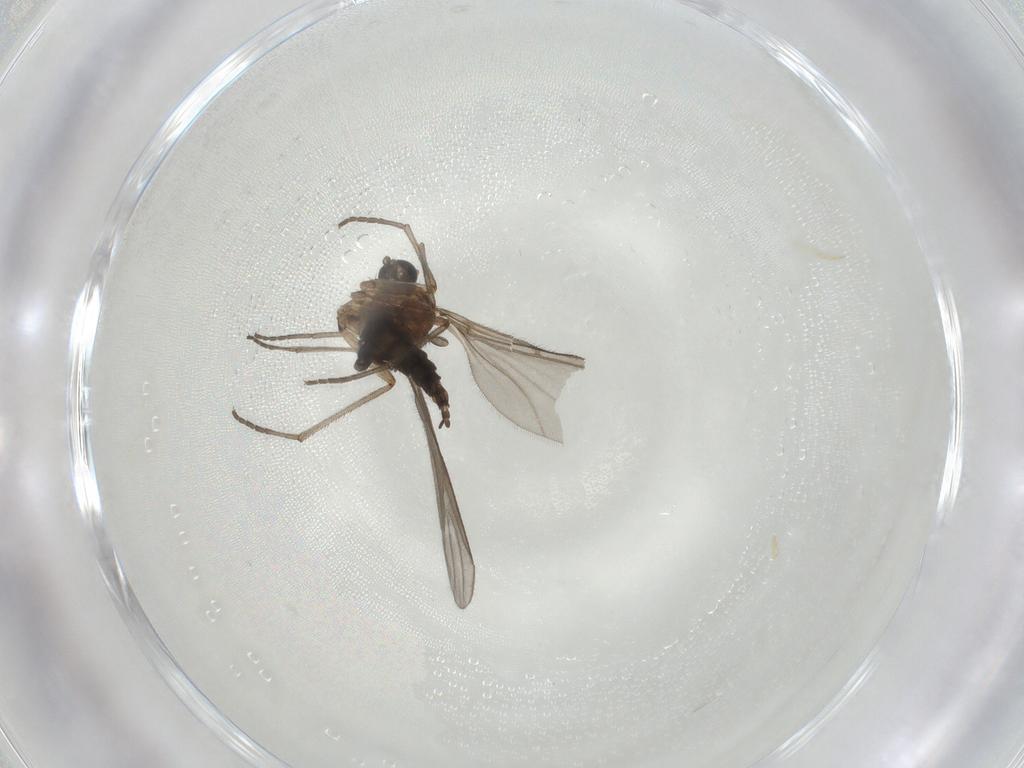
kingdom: Animalia
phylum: Arthropoda
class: Insecta
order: Diptera
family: Sciaridae
